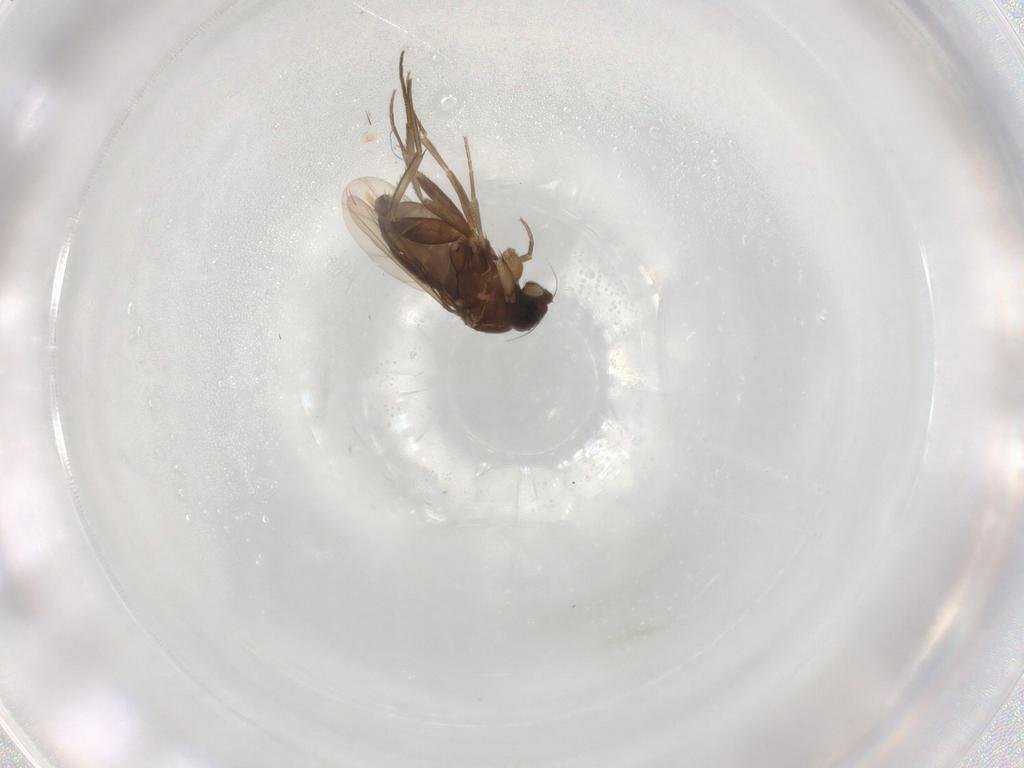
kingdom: Animalia
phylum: Arthropoda
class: Insecta
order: Diptera
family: Phoridae
